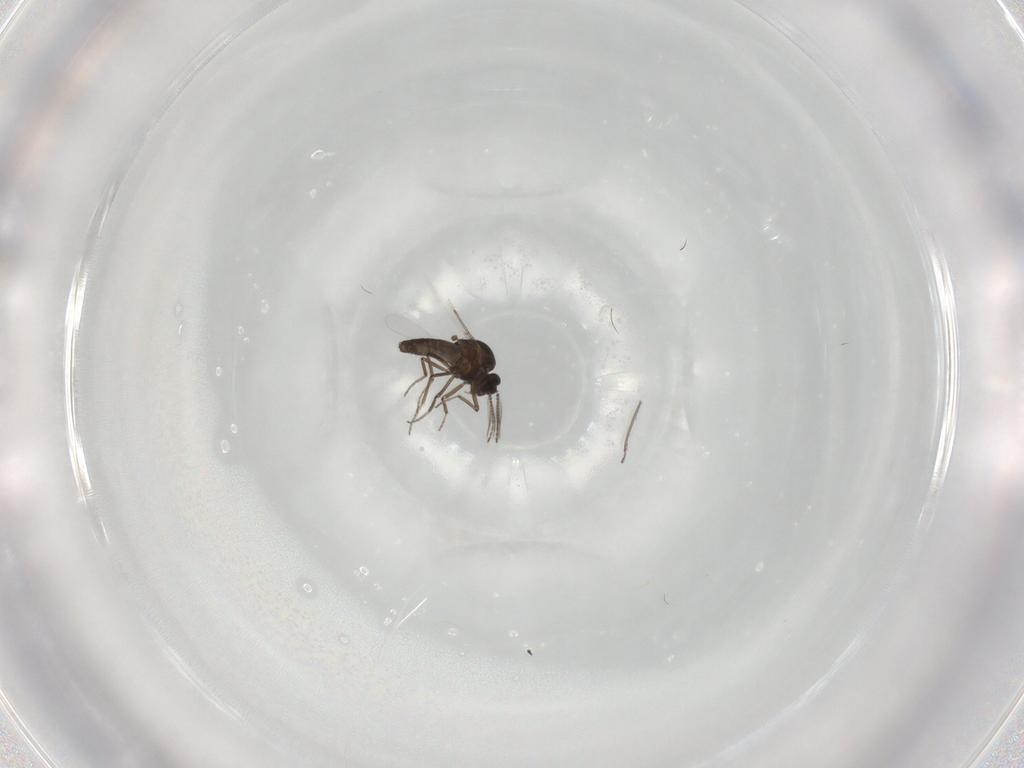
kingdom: Animalia
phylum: Arthropoda
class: Insecta
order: Diptera
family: Ceratopogonidae
